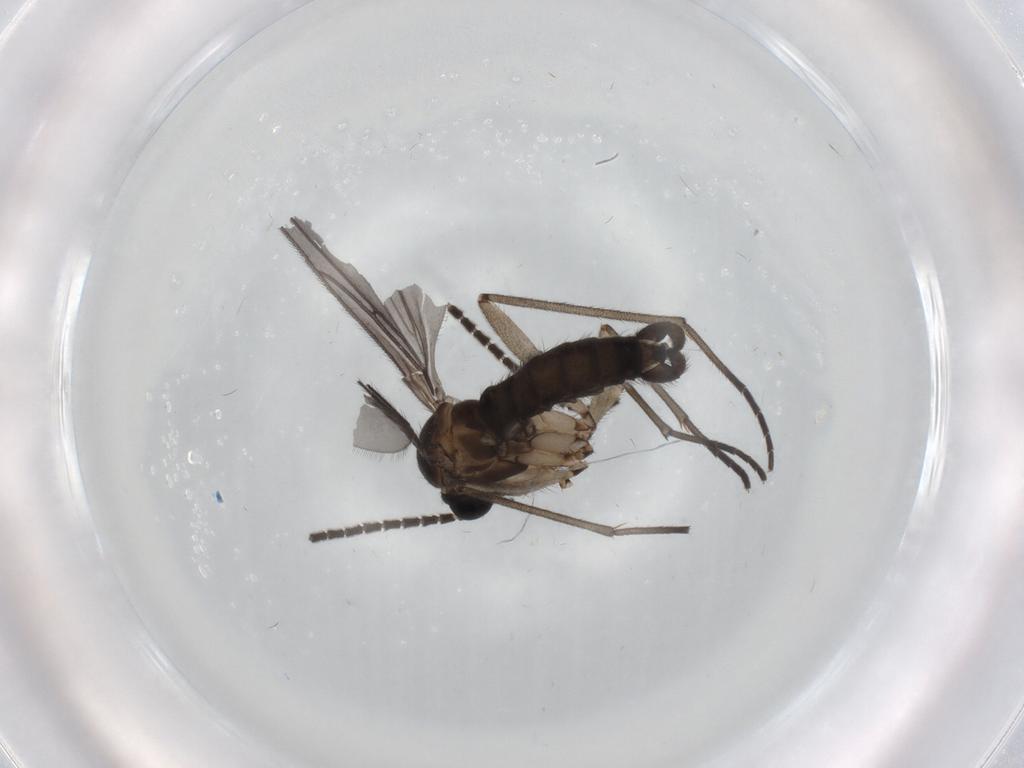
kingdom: Animalia
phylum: Arthropoda
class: Insecta
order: Diptera
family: Sciaridae
